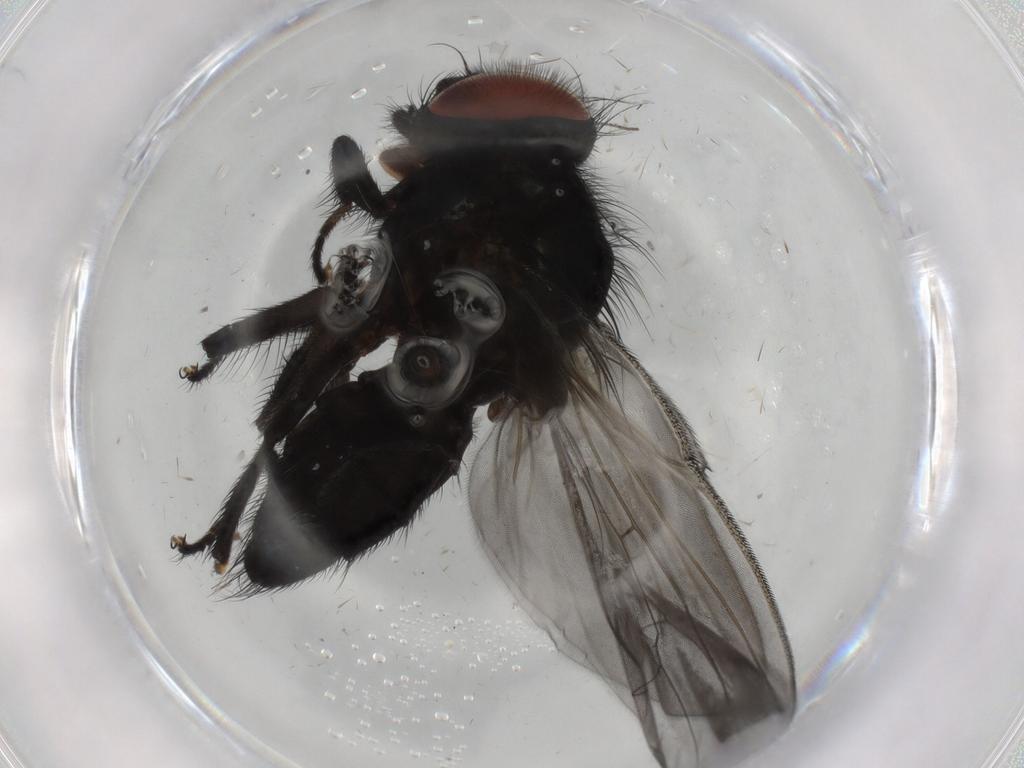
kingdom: Animalia
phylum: Arthropoda
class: Insecta
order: Diptera
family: Lonchaeidae
